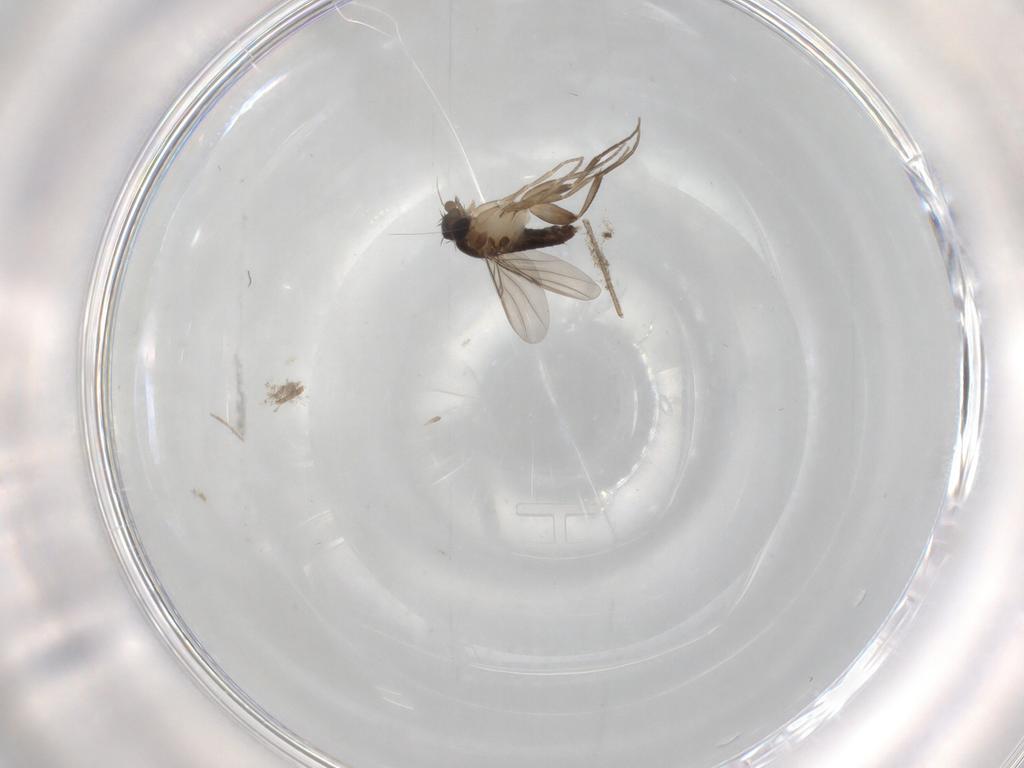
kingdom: Animalia
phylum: Arthropoda
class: Insecta
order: Diptera
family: Phoridae
